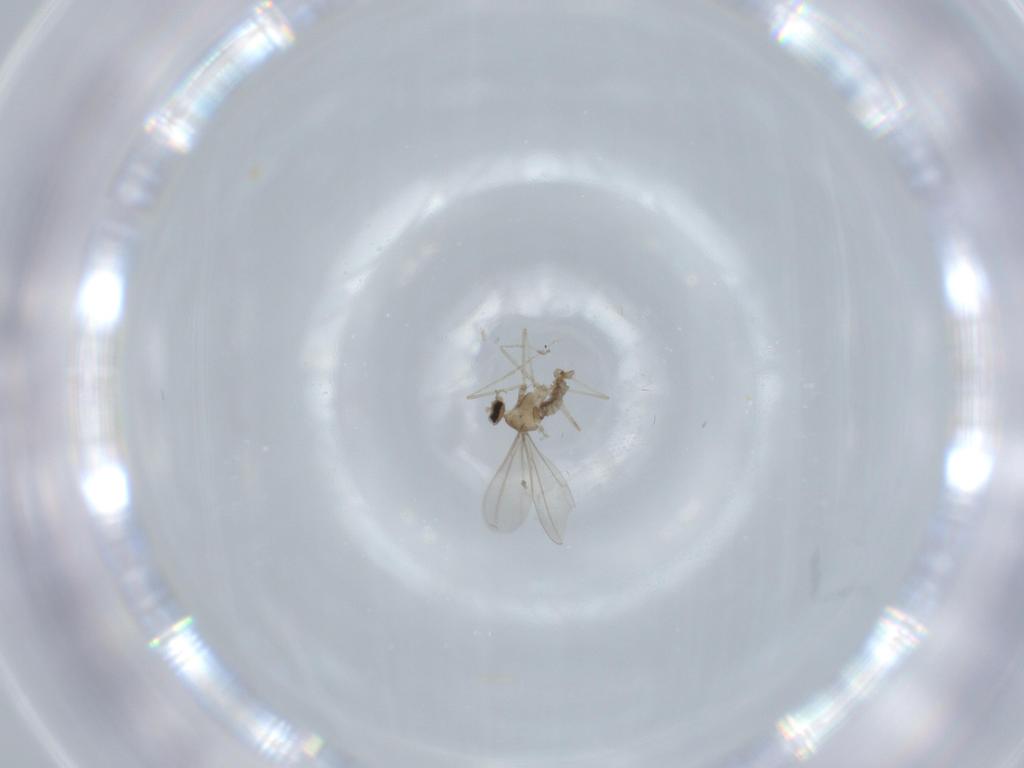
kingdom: Animalia
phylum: Arthropoda
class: Insecta
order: Diptera
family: Cecidomyiidae
